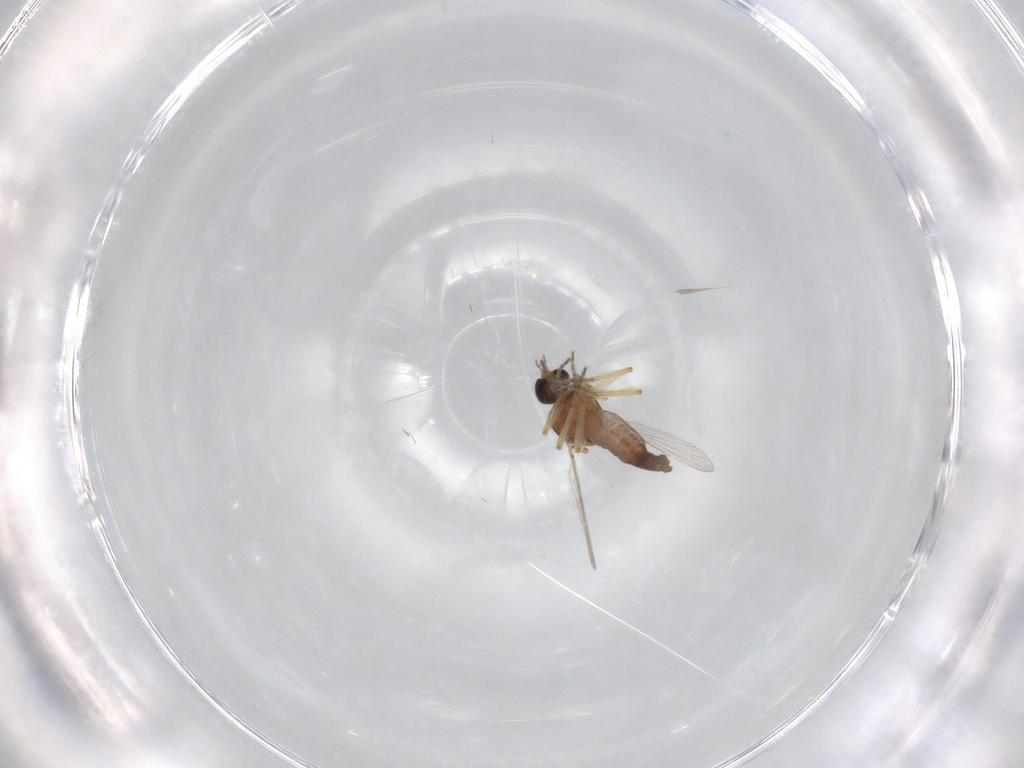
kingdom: Animalia
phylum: Arthropoda
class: Insecta
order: Diptera
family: Ceratopogonidae
